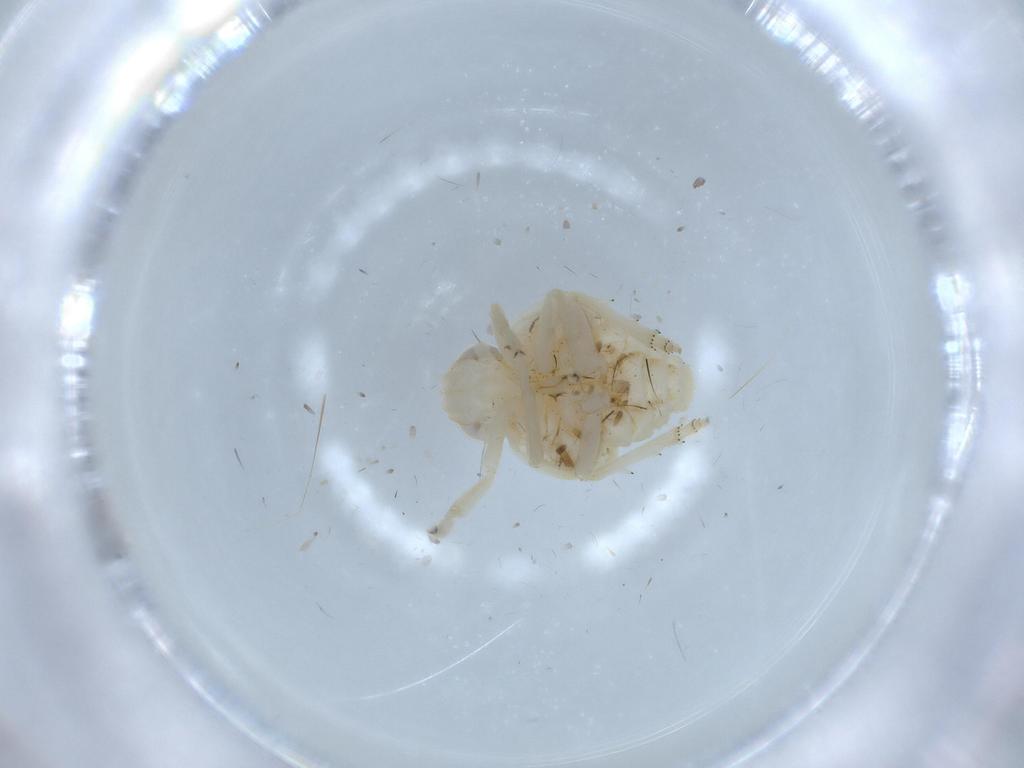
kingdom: Animalia
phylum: Arthropoda
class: Insecta
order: Hemiptera
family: Nogodinidae
